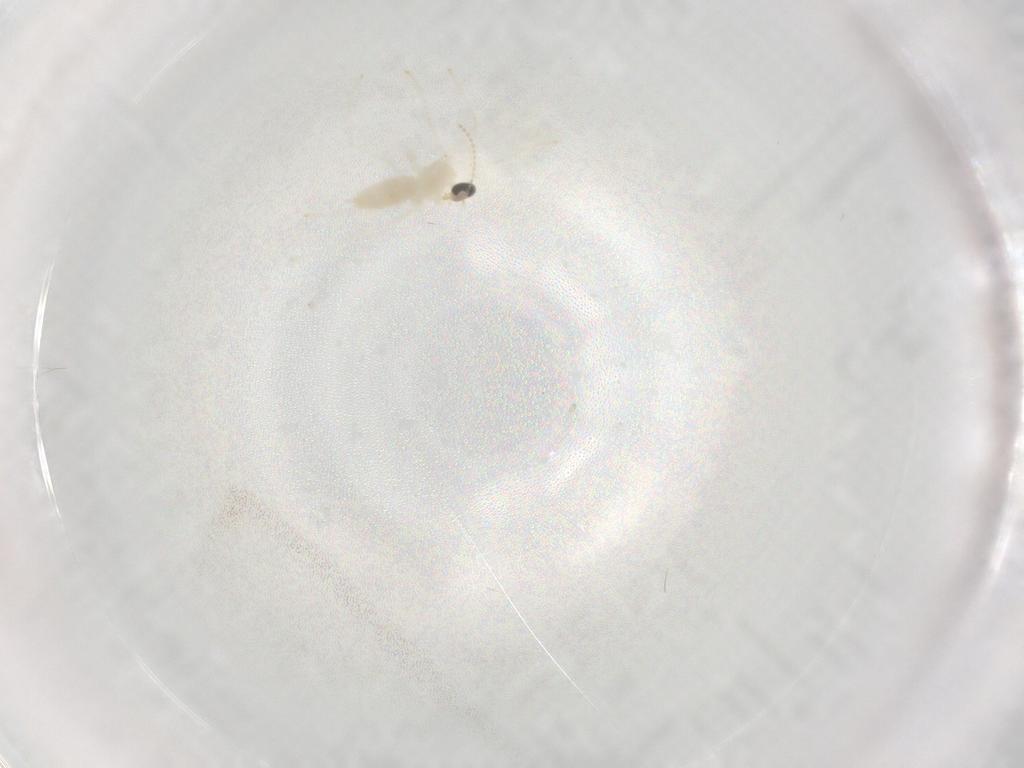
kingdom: Animalia
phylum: Arthropoda
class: Insecta
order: Diptera
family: Cecidomyiidae
